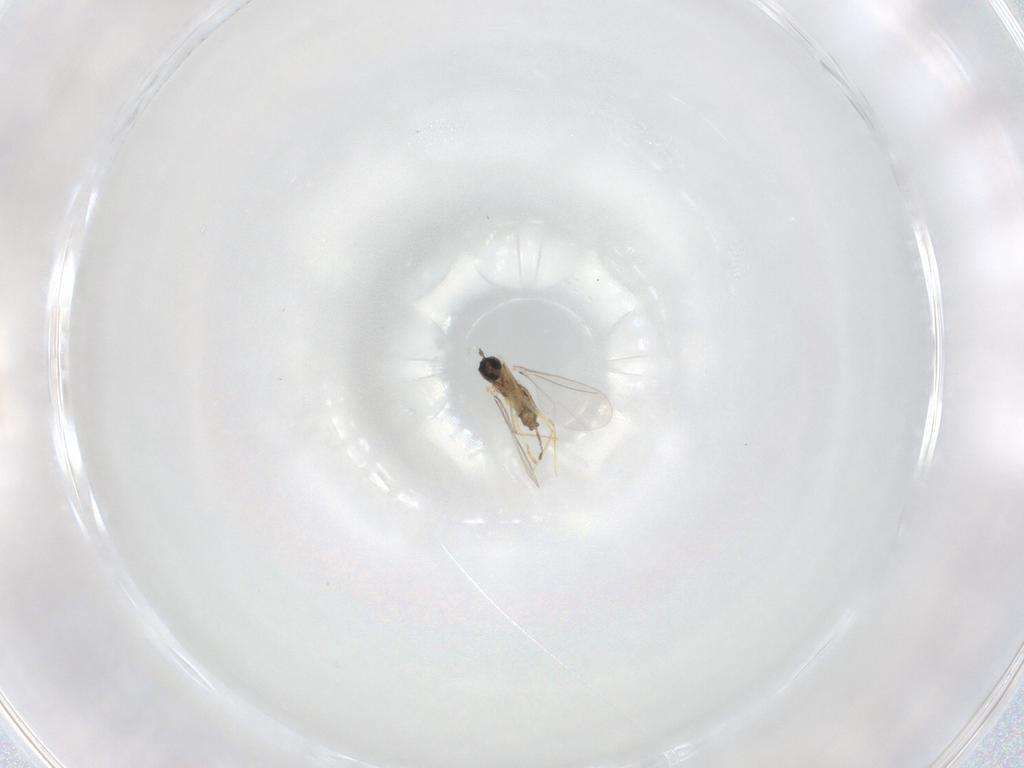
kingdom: Animalia
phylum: Arthropoda
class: Insecta
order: Diptera
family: Cecidomyiidae
